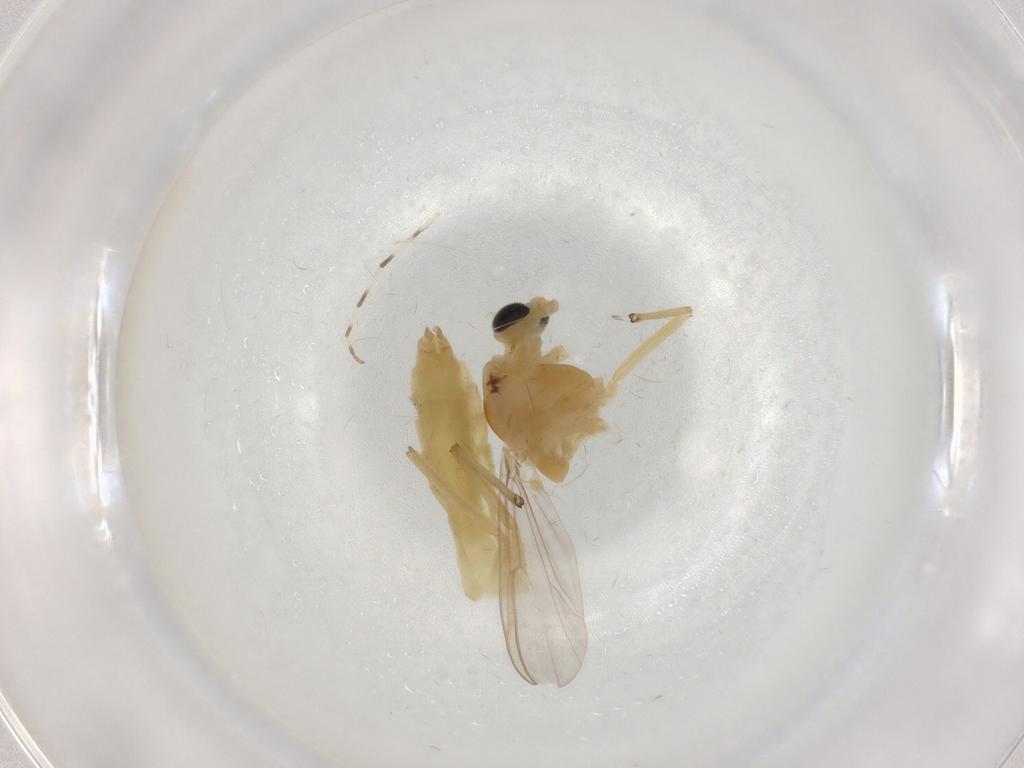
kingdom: Animalia
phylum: Arthropoda
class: Insecta
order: Diptera
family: Chironomidae
